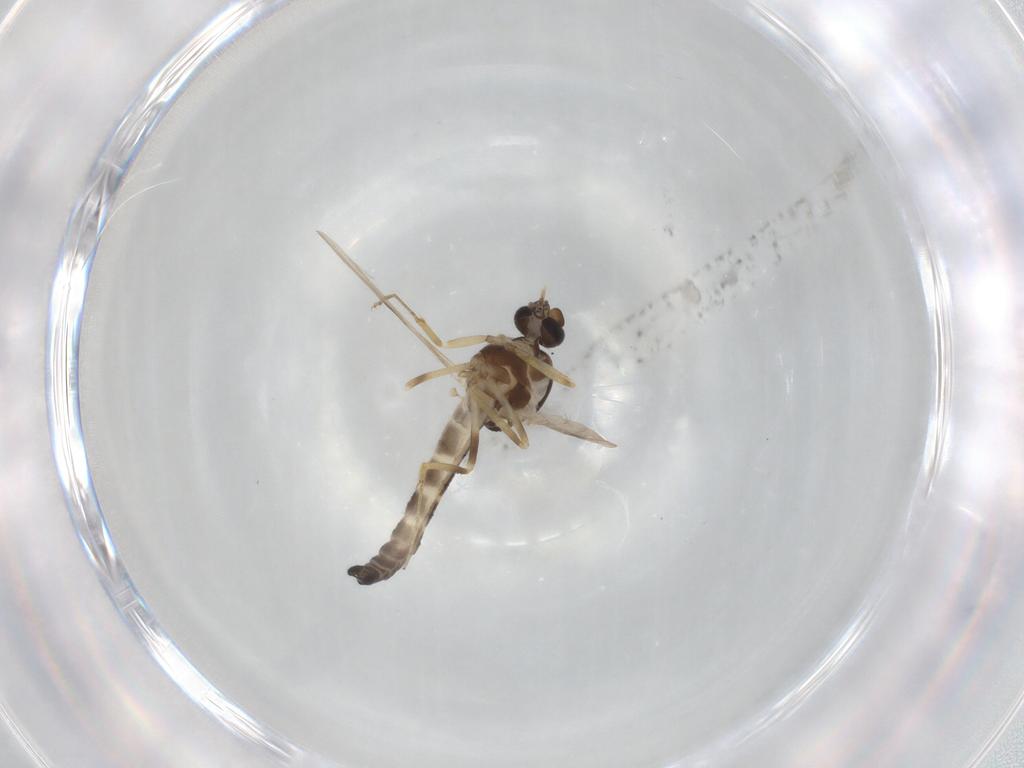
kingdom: Animalia
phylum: Arthropoda
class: Insecta
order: Diptera
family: Ceratopogonidae
